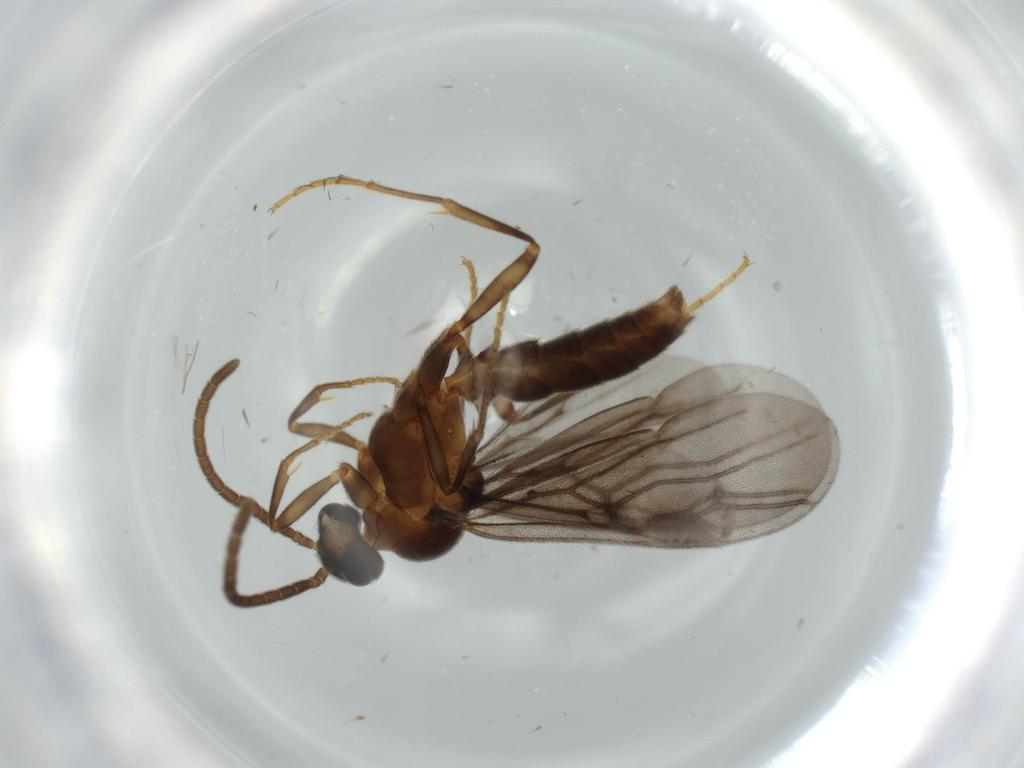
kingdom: Animalia
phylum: Arthropoda
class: Insecta
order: Hymenoptera
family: Formicidae
